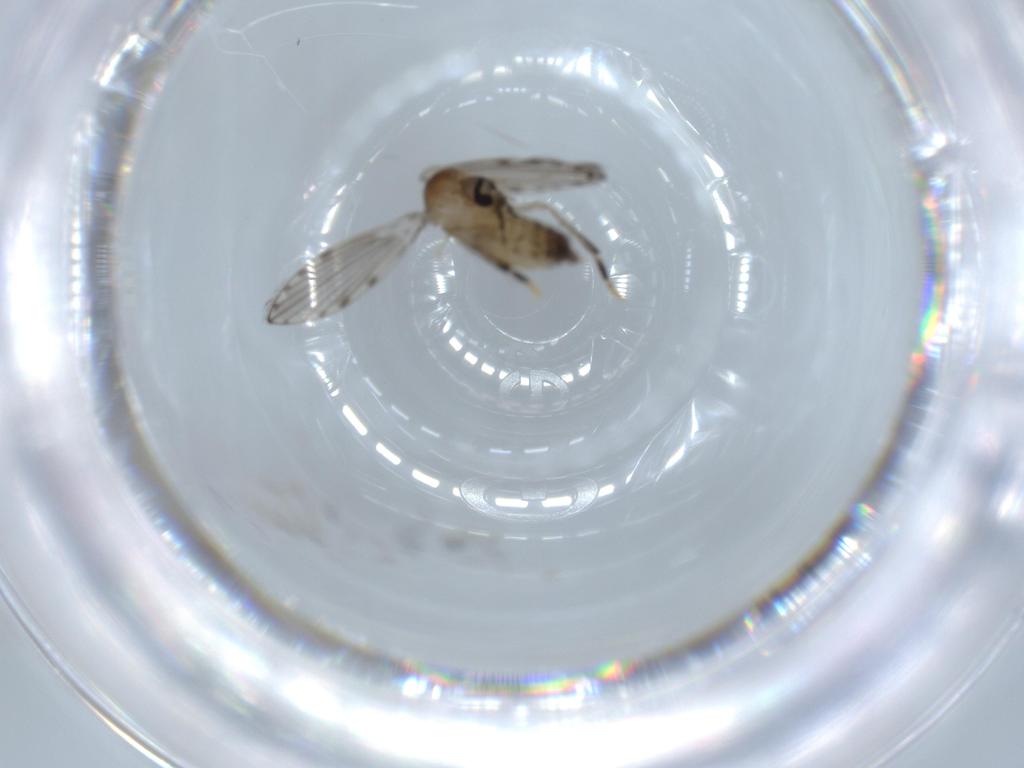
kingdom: Animalia
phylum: Arthropoda
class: Insecta
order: Diptera
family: Psychodidae
